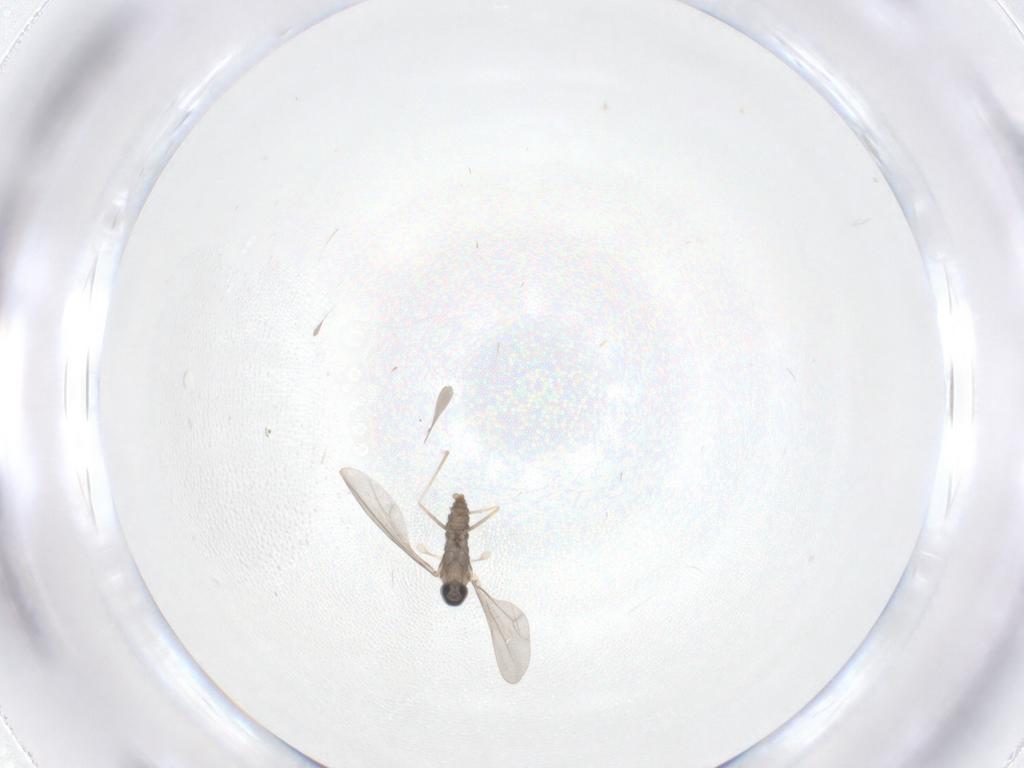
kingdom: Animalia
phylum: Arthropoda
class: Insecta
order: Diptera
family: Cecidomyiidae
